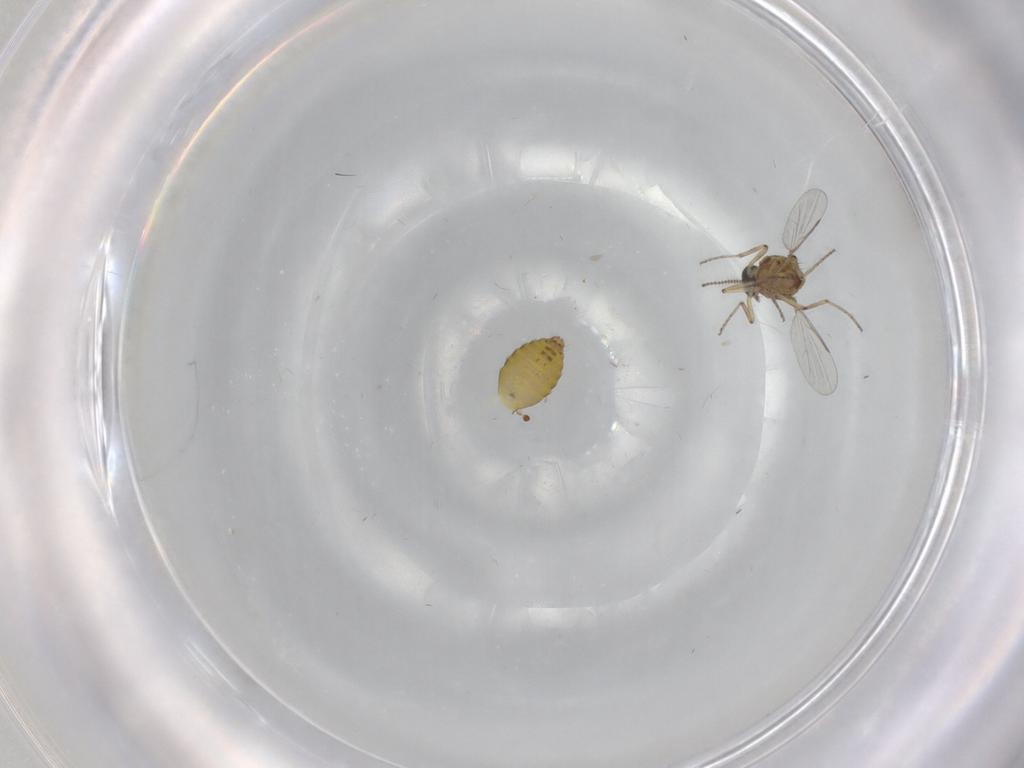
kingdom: Animalia
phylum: Arthropoda
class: Insecta
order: Diptera
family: Ceratopogonidae
